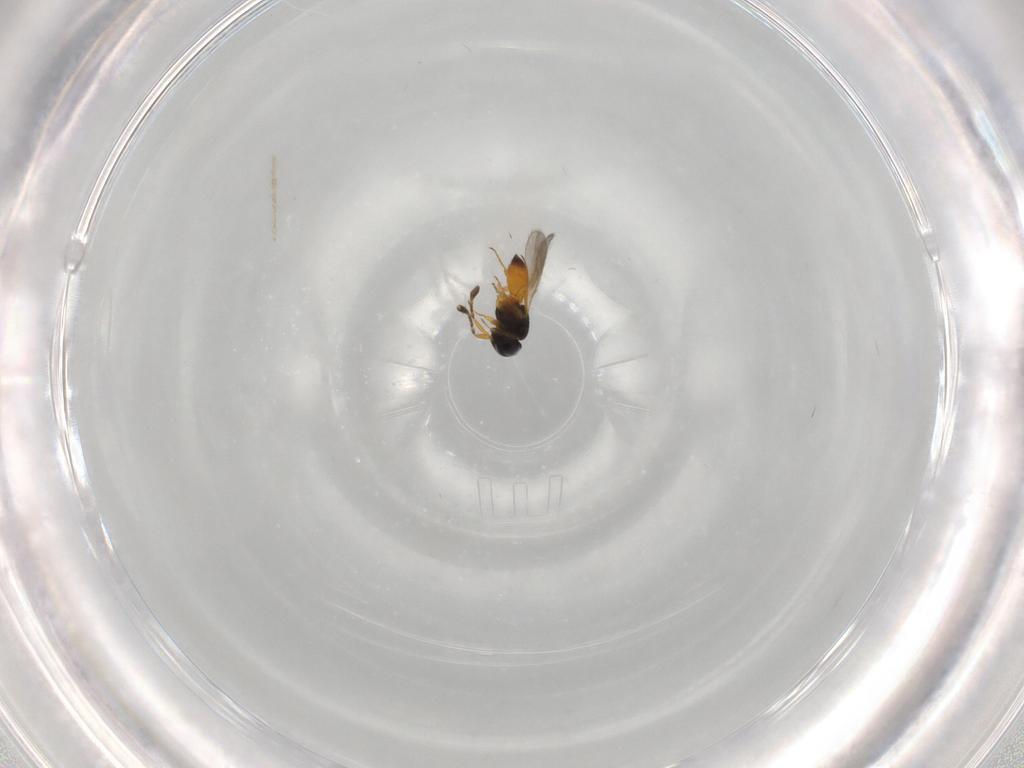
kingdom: Animalia
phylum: Arthropoda
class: Insecta
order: Hymenoptera
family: Scelionidae
